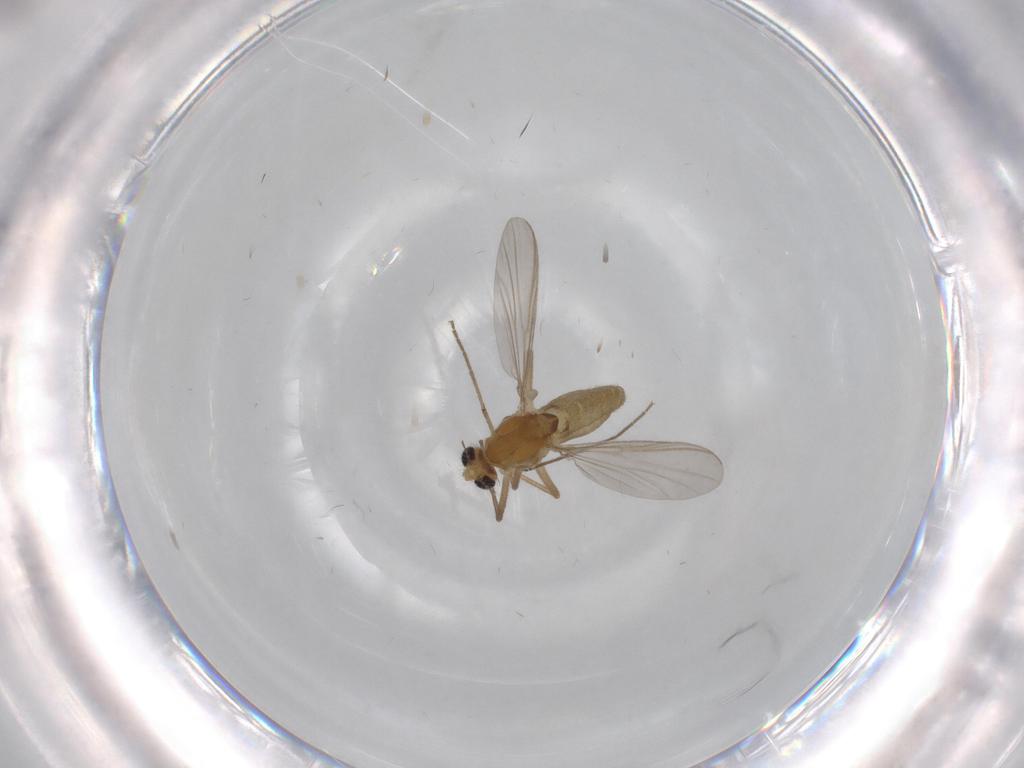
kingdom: Animalia
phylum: Arthropoda
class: Insecta
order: Diptera
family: Chironomidae
